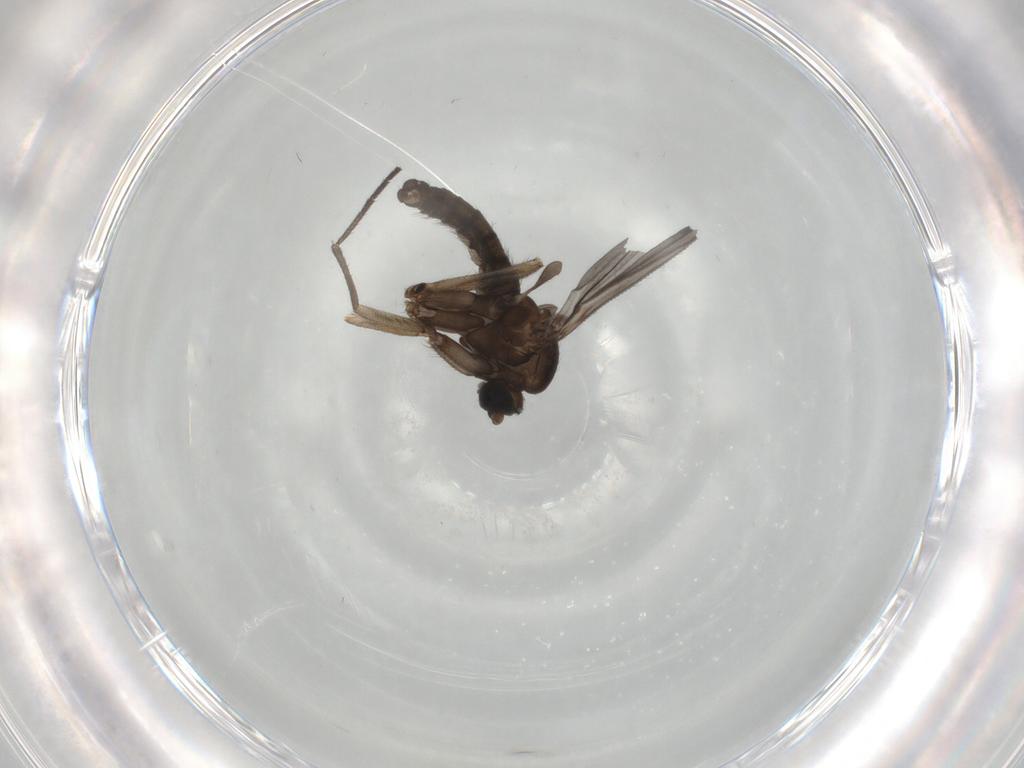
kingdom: Animalia
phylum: Arthropoda
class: Insecta
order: Diptera
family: Sciaridae
